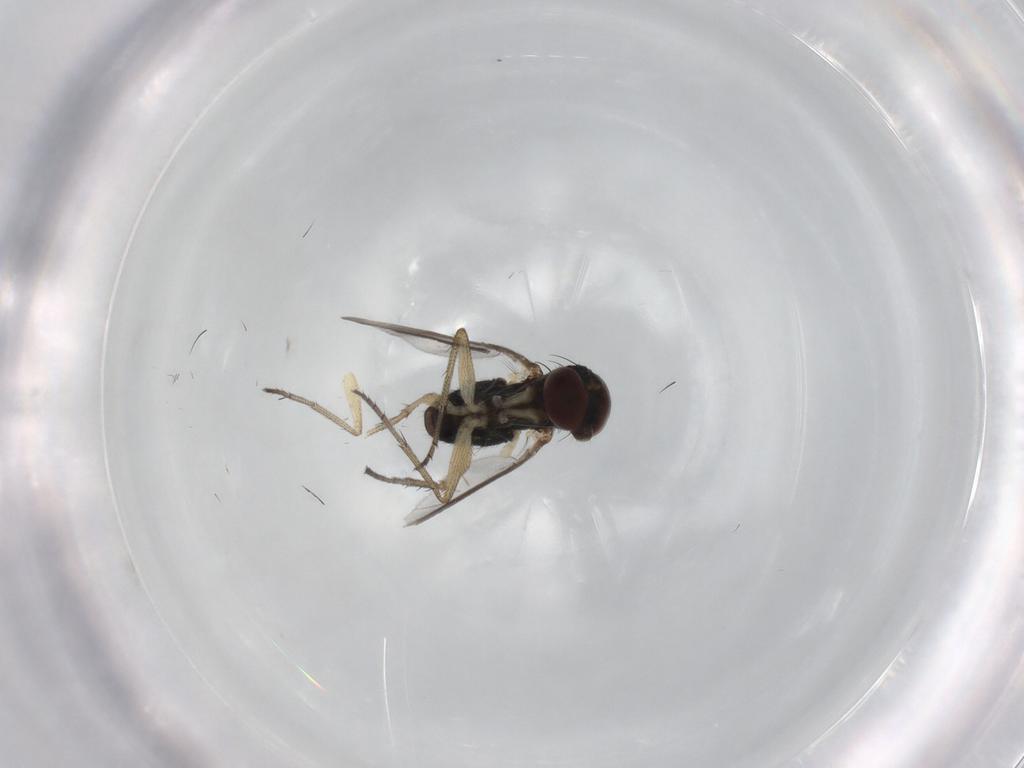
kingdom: Animalia
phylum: Arthropoda
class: Insecta
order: Diptera
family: Dolichopodidae
